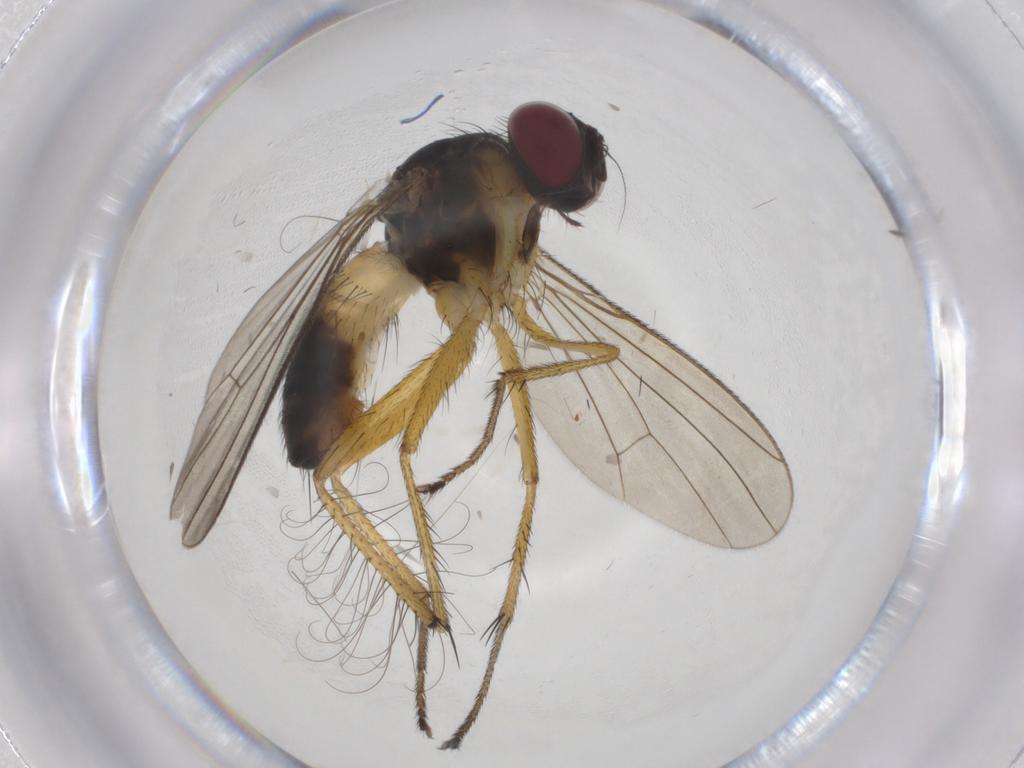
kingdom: Animalia
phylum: Arthropoda
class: Insecta
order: Diptera
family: Muscidae
